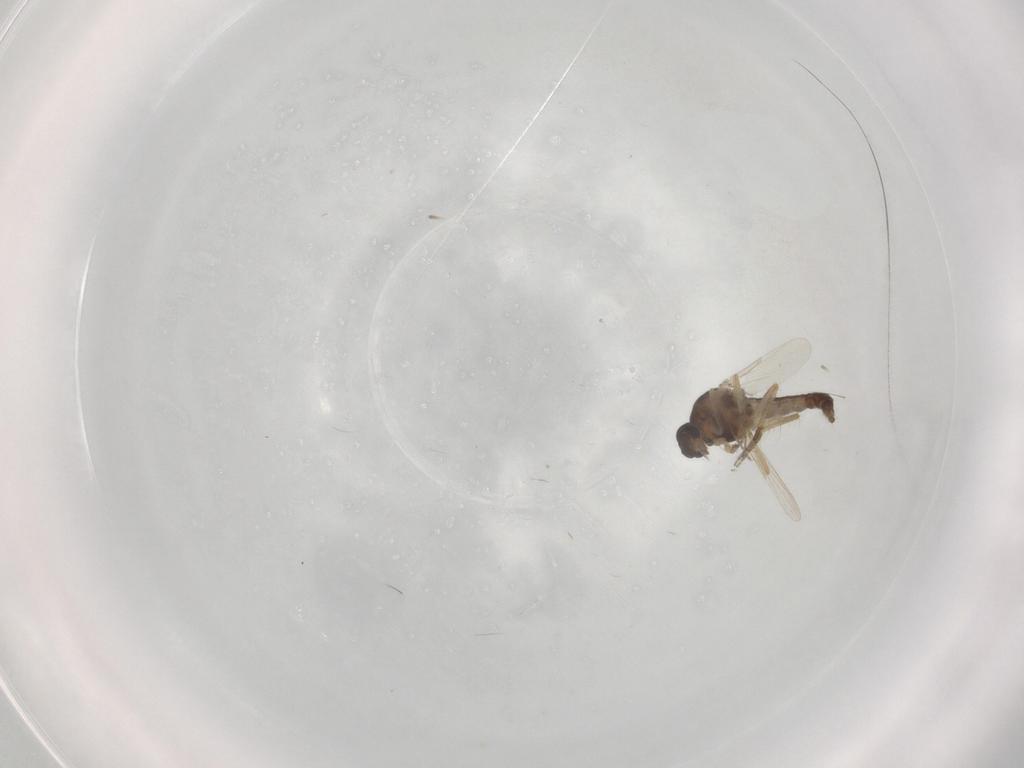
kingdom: Animalia
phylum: Arthropoda
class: Insecta
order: Diptera
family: Ceratopogonidae
